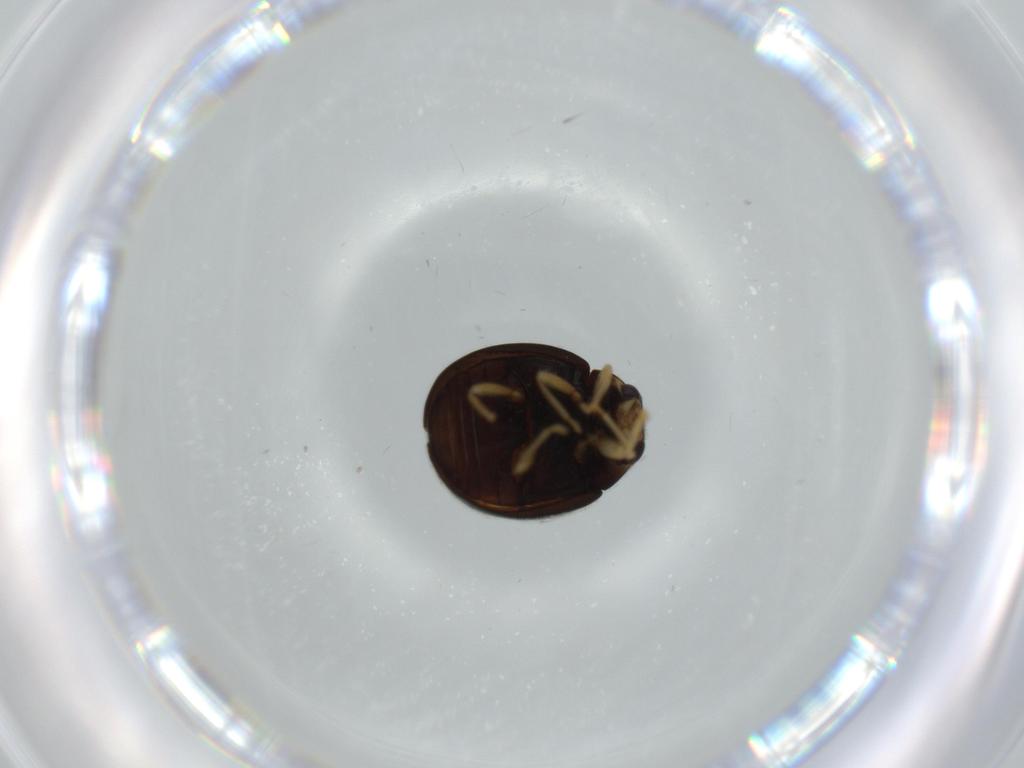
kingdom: Animalia
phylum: Arthropoda
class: Insecta
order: Coleoptera
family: Coccinellidae
